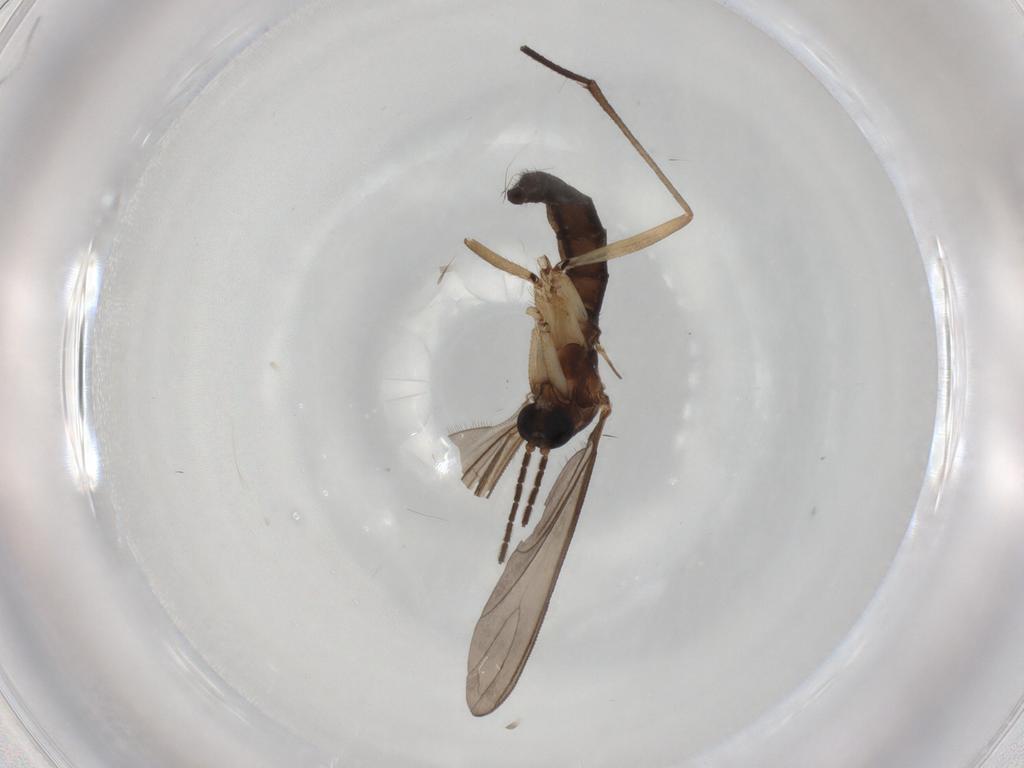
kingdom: Animalia
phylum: Arthropoda
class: Insecta
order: Diptera
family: Sciaridae
